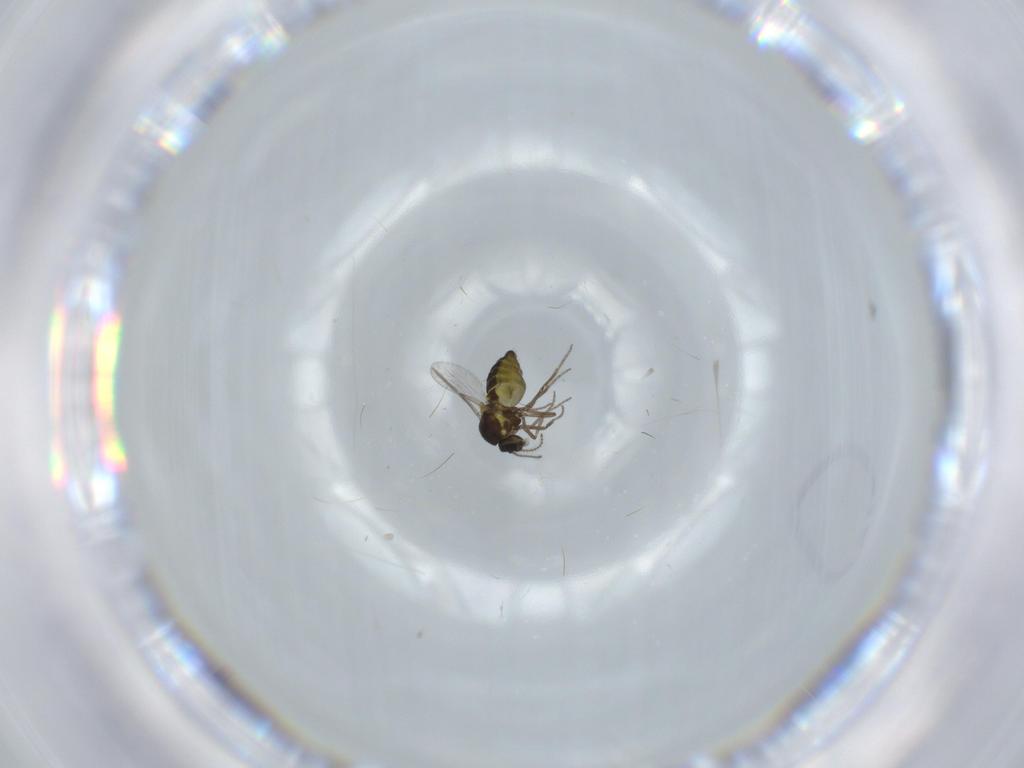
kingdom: Animalia
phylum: Arthropoda
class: Insecta
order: Diptera
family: Ceratopogonidae
